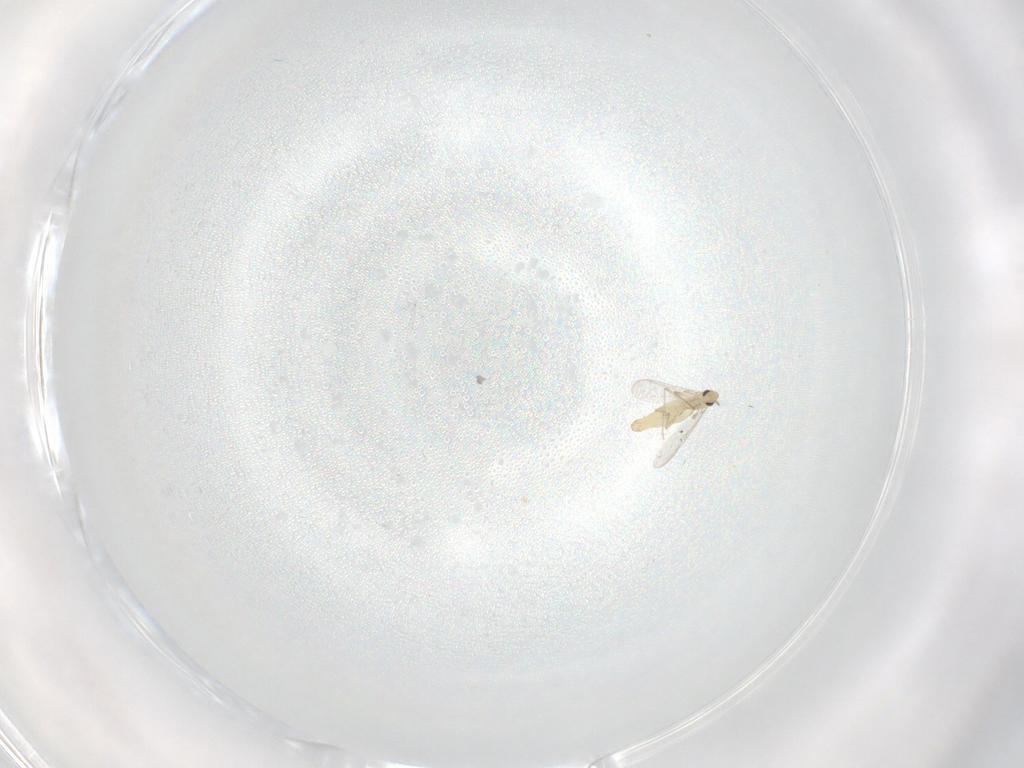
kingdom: Animalia
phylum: Arthropoda
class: Insecta
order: Diptera
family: Chironomidae
